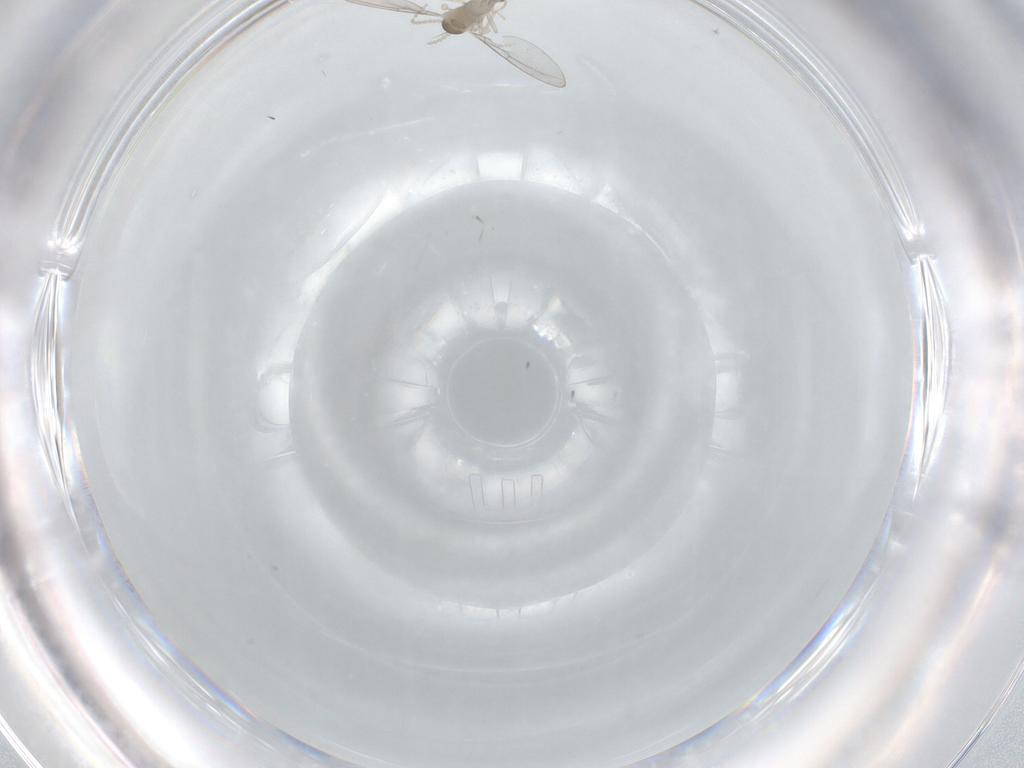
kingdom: Animalia
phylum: Arthropoda
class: Insecta
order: Diptera
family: Cecidomyiidae
